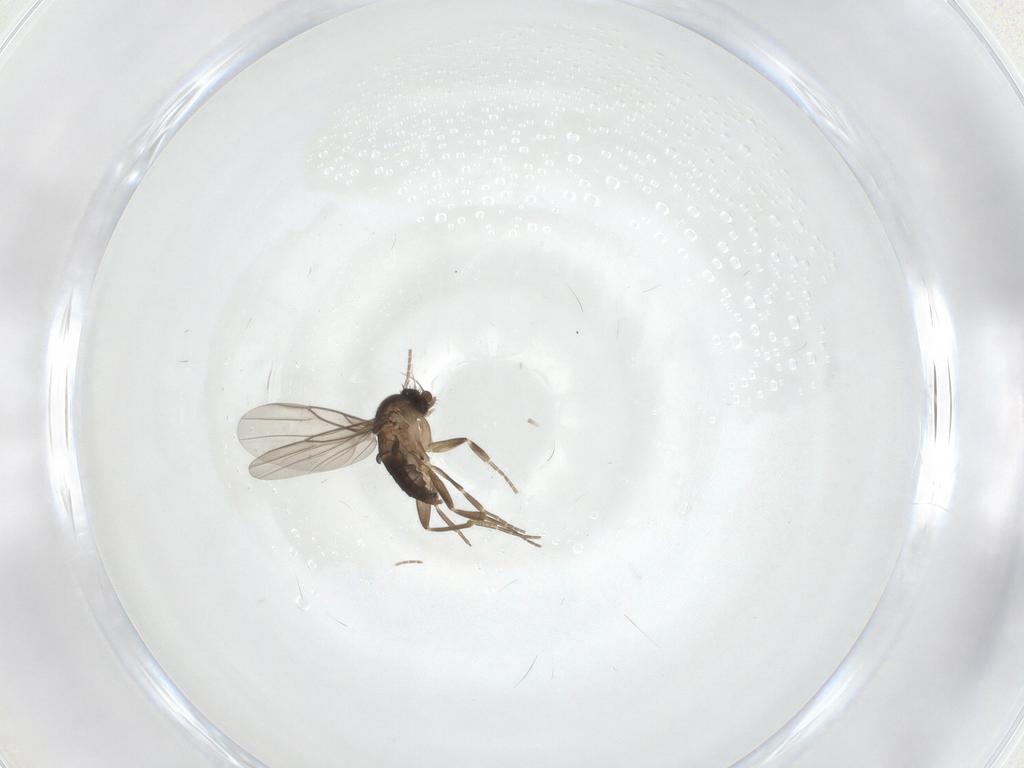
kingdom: Animalia
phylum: Arthropoda
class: Insecta
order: Diptera
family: Phoridae
